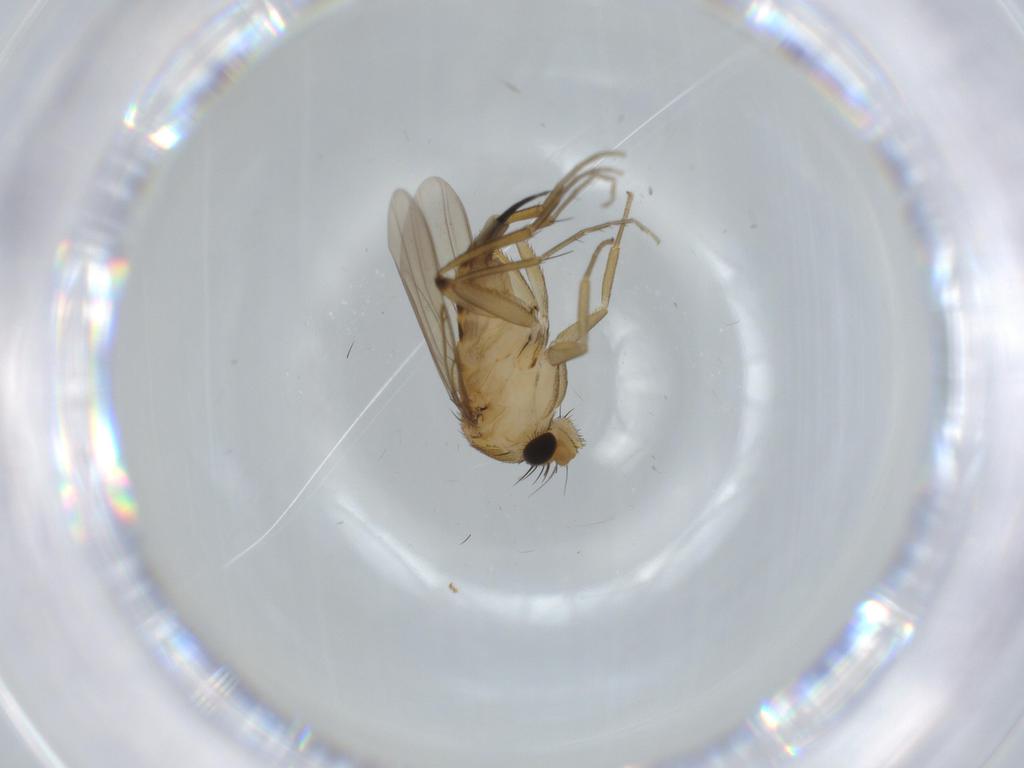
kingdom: Animalia
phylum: Arthropoda
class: Insecta
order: Diptera
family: Phoridae
